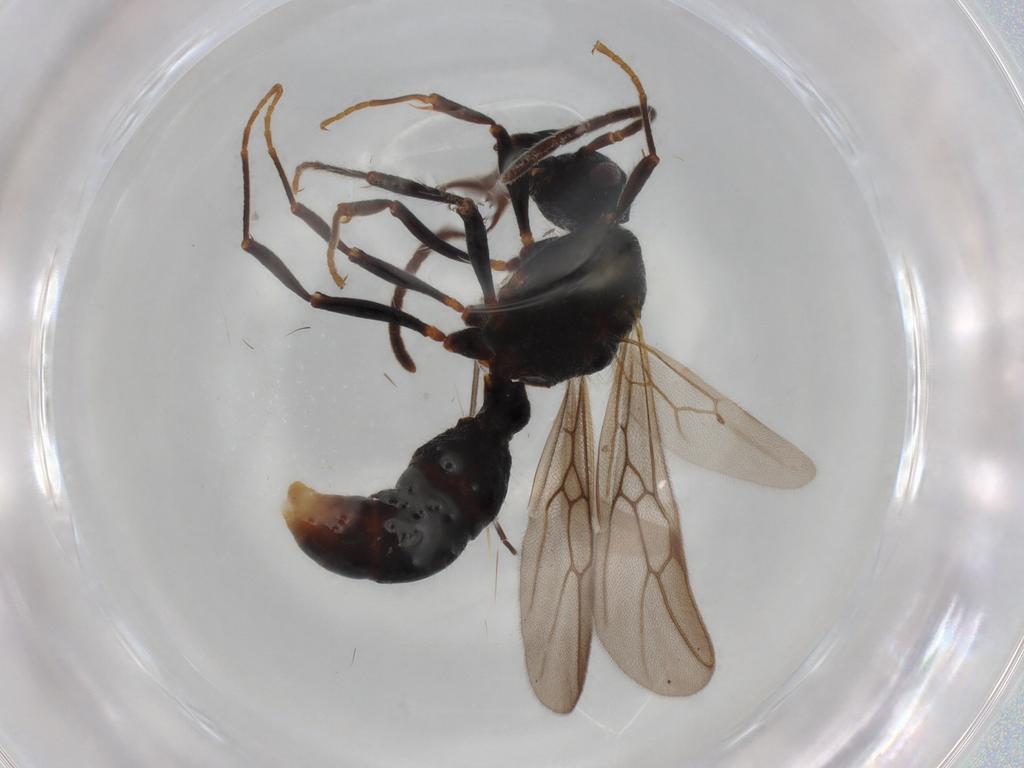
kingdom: Animalia
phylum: Arthropoda
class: Insecta
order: Hymenoptera
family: Formicidae
